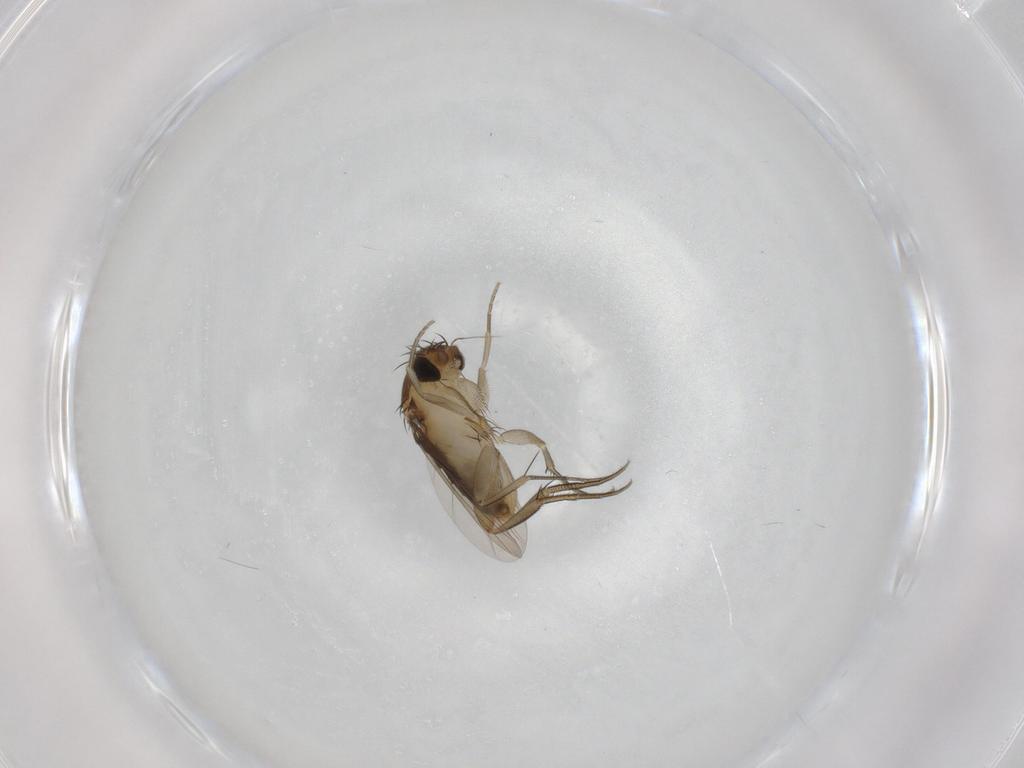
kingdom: Animalia
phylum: Arthropoda
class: Insecta
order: Diptera
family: Phoridae
